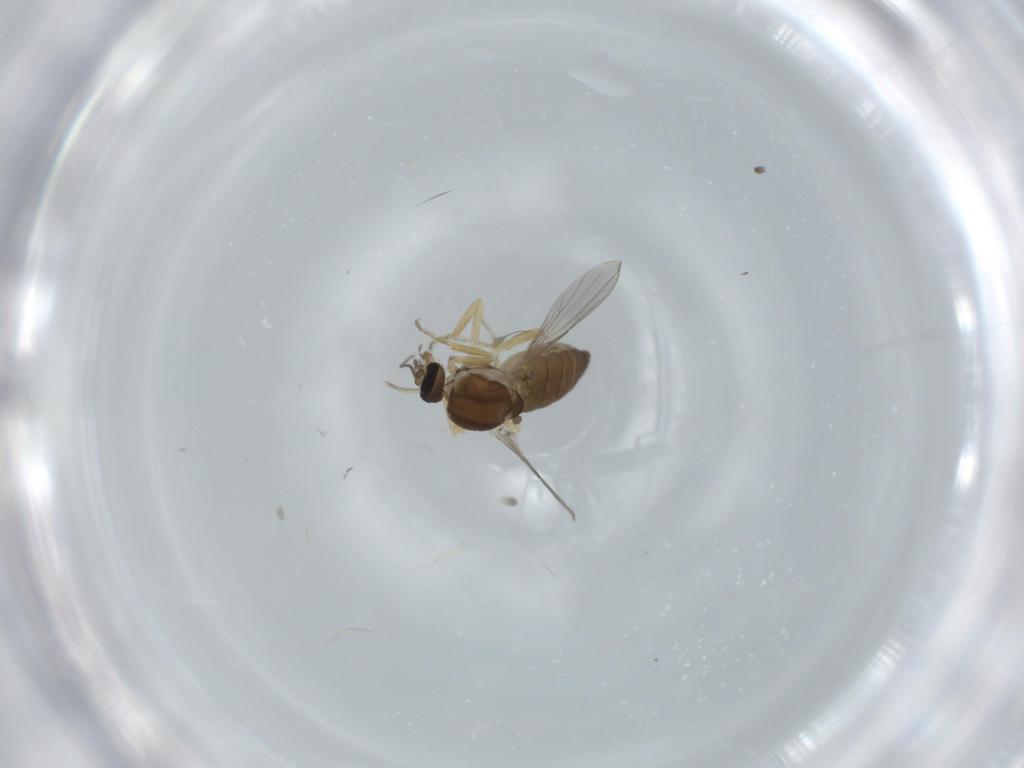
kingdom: Animalia
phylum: Arthropoda
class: Insecta
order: Diptera
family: Ceratopogonidae
